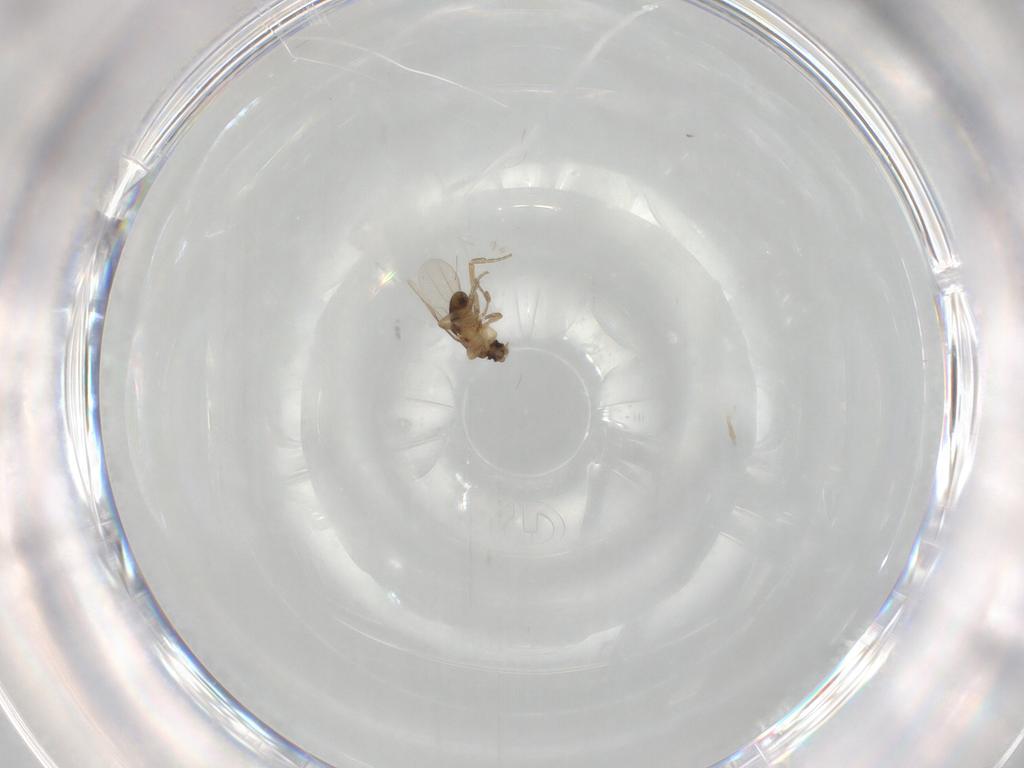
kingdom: Animalia
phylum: Arthropoda
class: Insecta
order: Diptera
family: Phoridae
